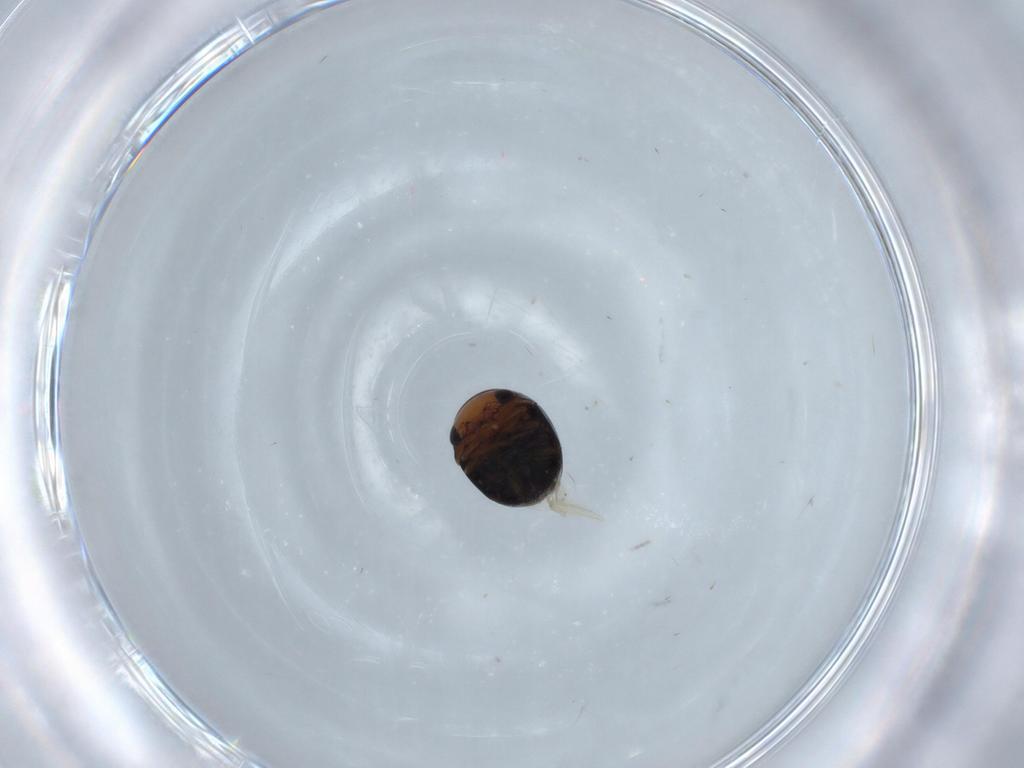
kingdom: Animalia
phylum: Arthropoda
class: Insecta
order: Coleoptera
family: Cybocephalidae
